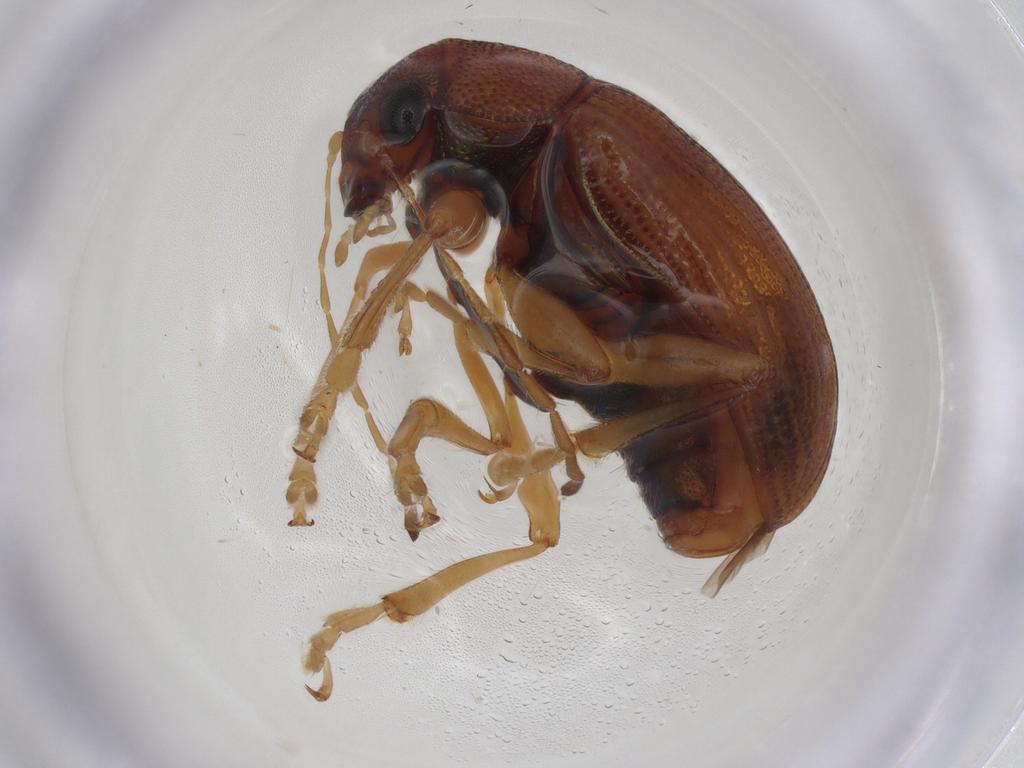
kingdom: Animalia
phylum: Arthropoda
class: Insecta
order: Coleoptera
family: Chrysomelidae
